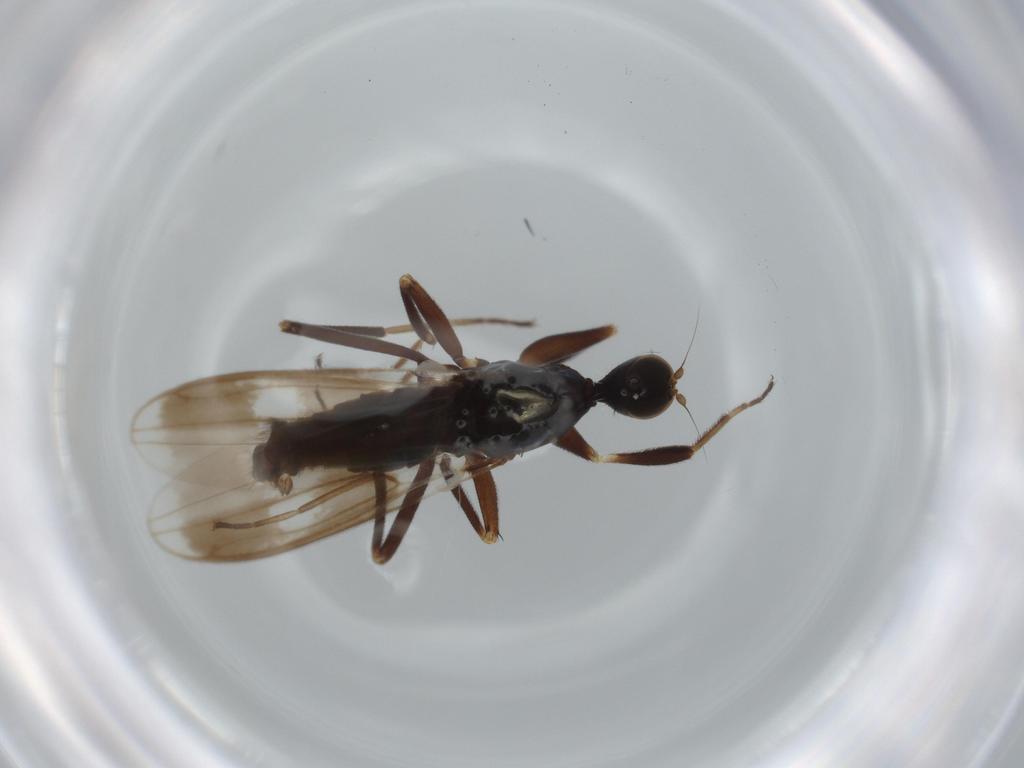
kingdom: Animalia
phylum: Arthropoda
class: Insecta
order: Diptera
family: Hybotidae
